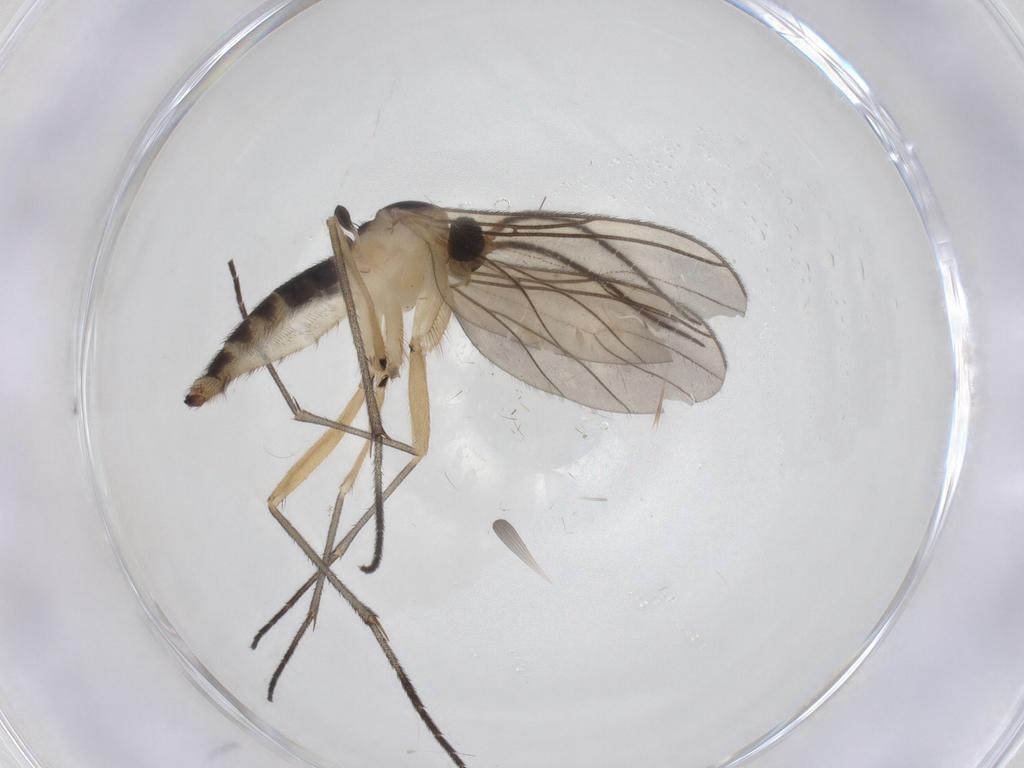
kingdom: Animalia
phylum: Arthropoda
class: Insecta
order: Diptera
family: Sciaridae
